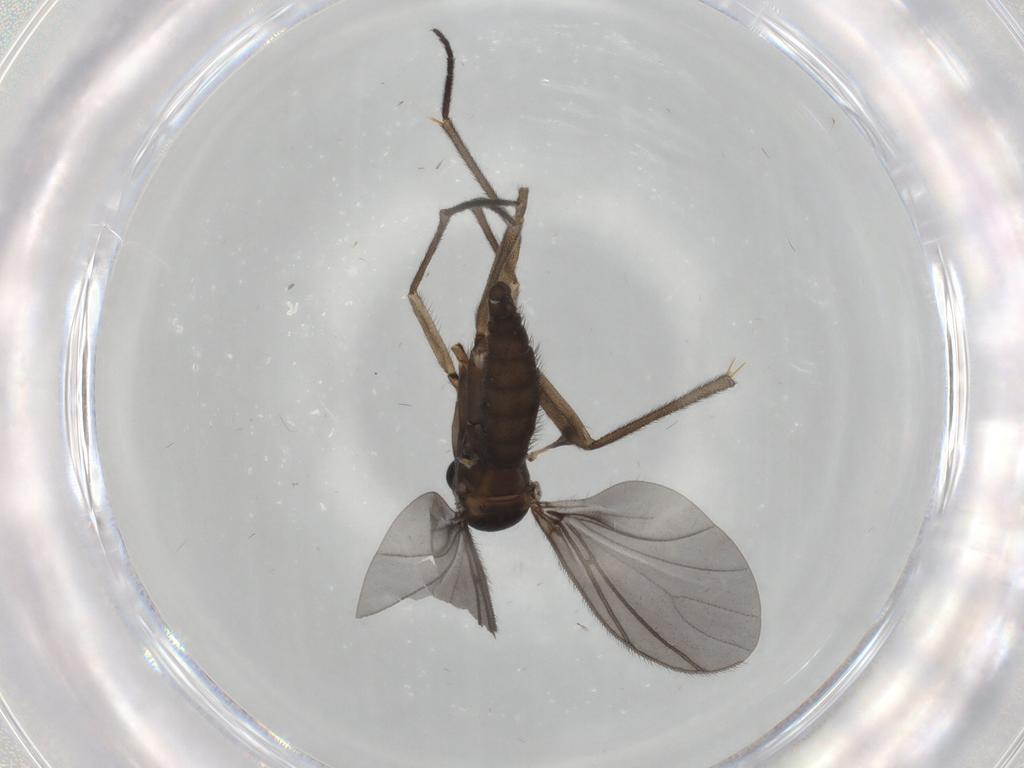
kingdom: Animalia
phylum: Arthropoda
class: Insecta
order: Diptera
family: Sciaridae
